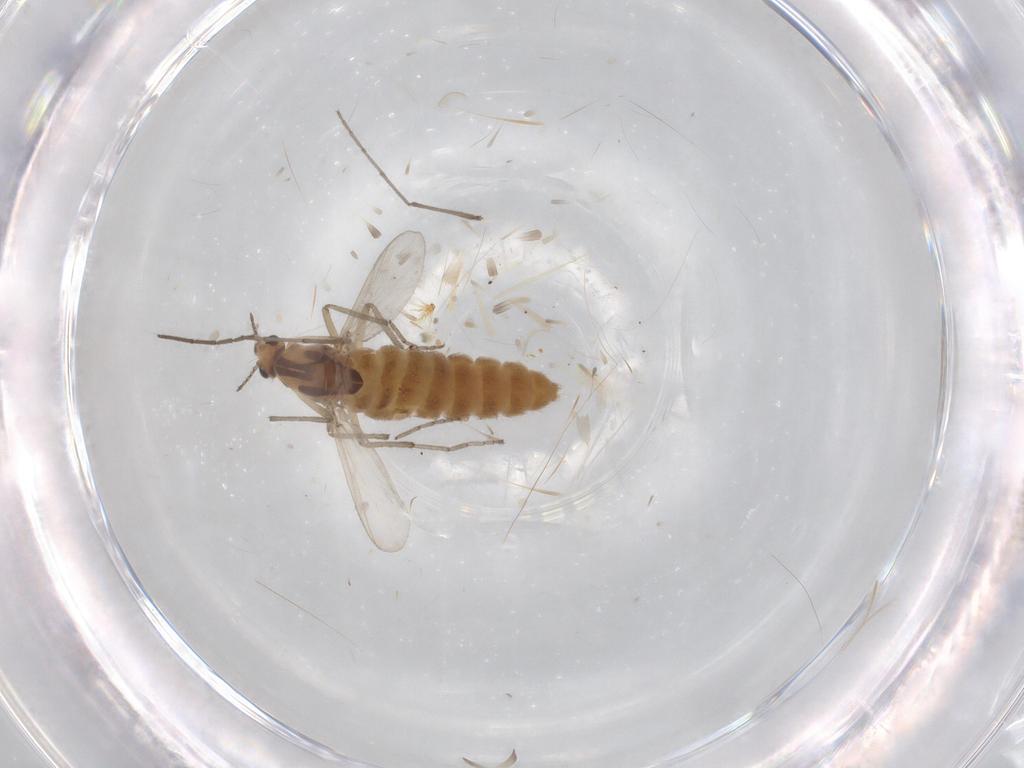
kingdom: Animalia
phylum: Arthropoda
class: Insecta
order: Diptera
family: Chironomidae
